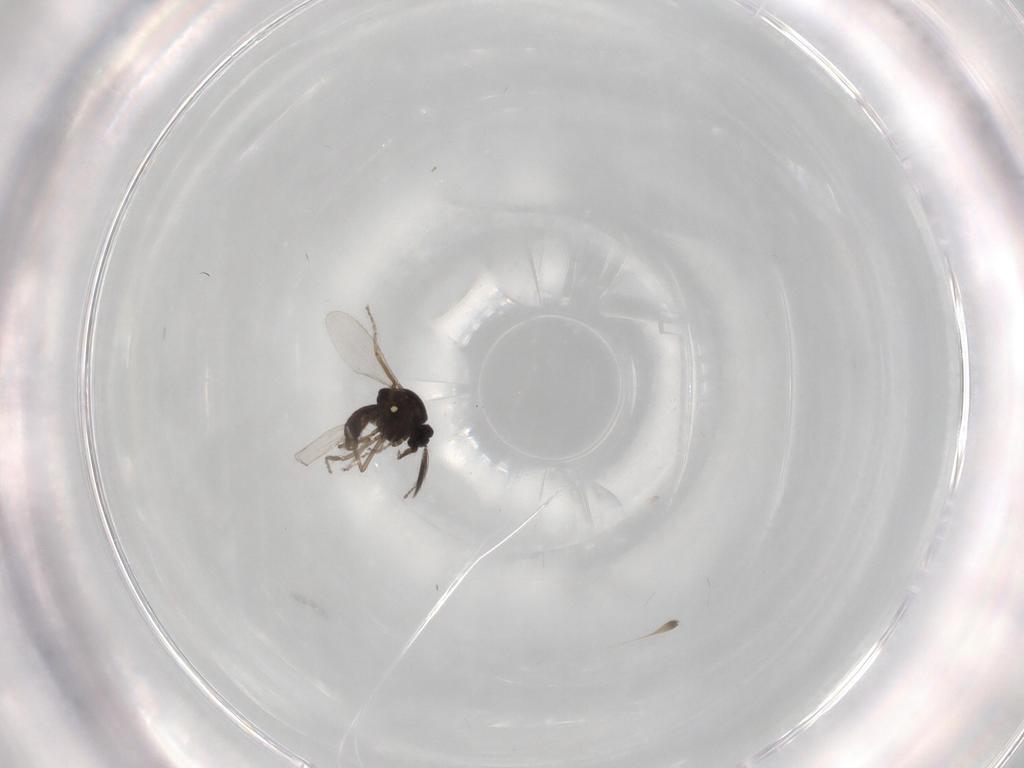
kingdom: Animalia
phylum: Arthropoda
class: Insecta
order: Diptera
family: Ceratopogonidae
